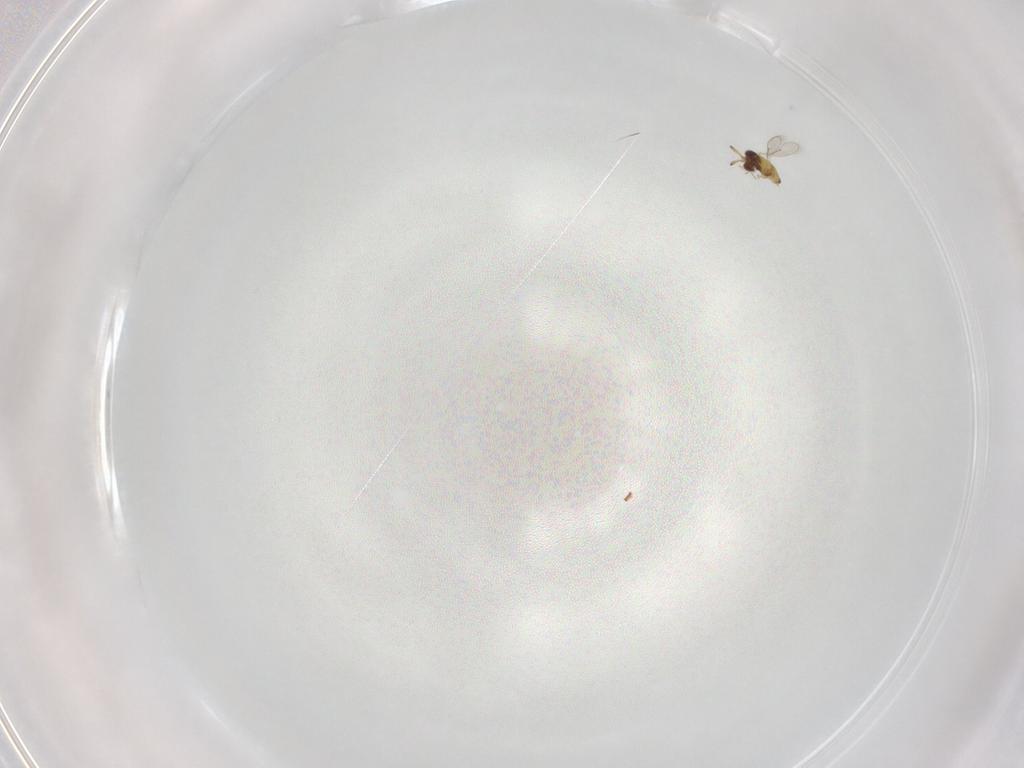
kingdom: Animalia
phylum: Arthropoda
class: Insecta
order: Hymenoptera
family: Aphelinidae
